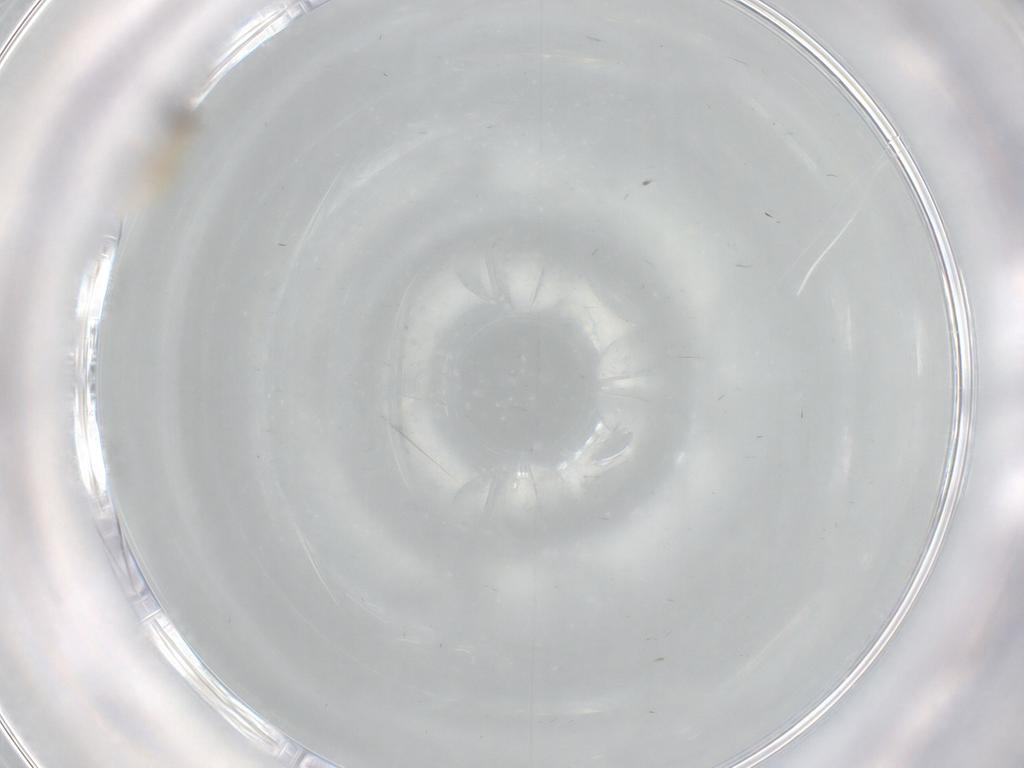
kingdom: Animalia
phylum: Arthropoda
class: Insecta
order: Diptera
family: Cecidomyiidae
